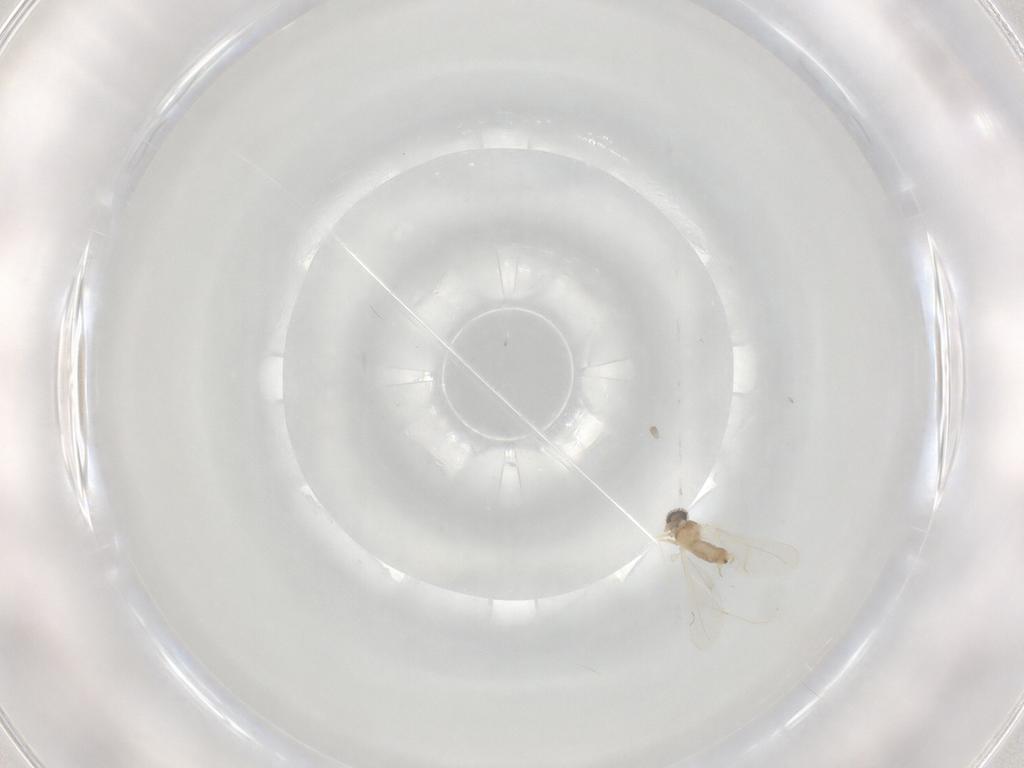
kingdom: Animalia
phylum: Arthropoda
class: Insecta
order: Diptera
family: Cecidomyiidae
